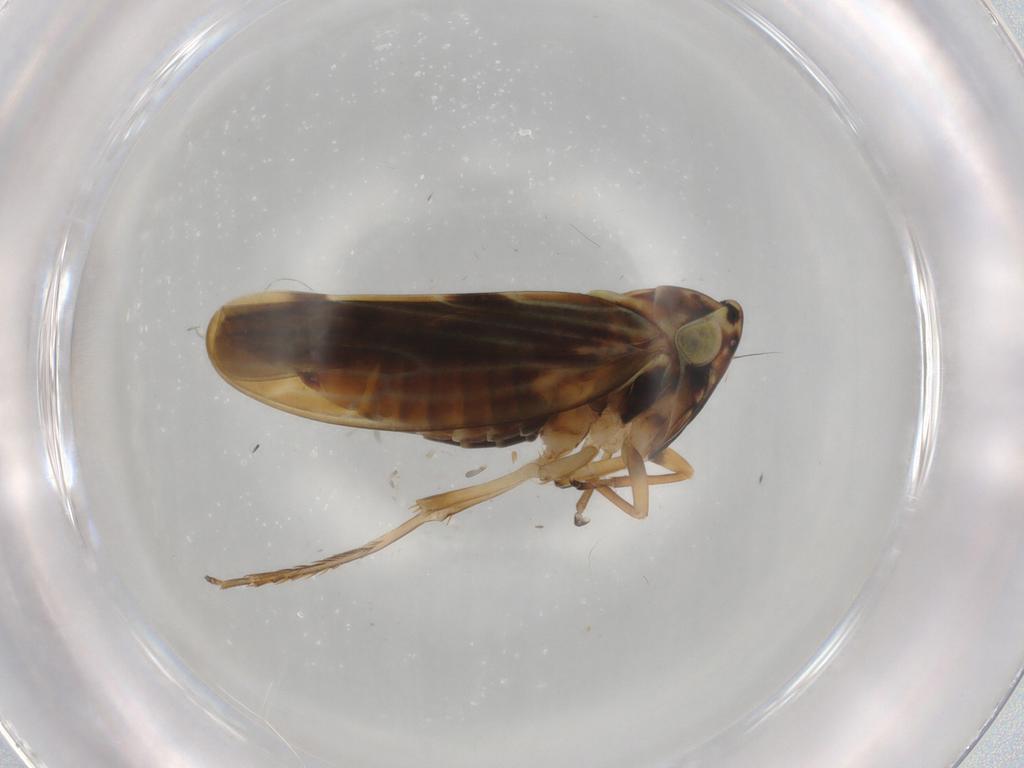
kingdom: Animalia
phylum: Arthropoda
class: Insecta
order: Hemiptera
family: Cicadellidae
